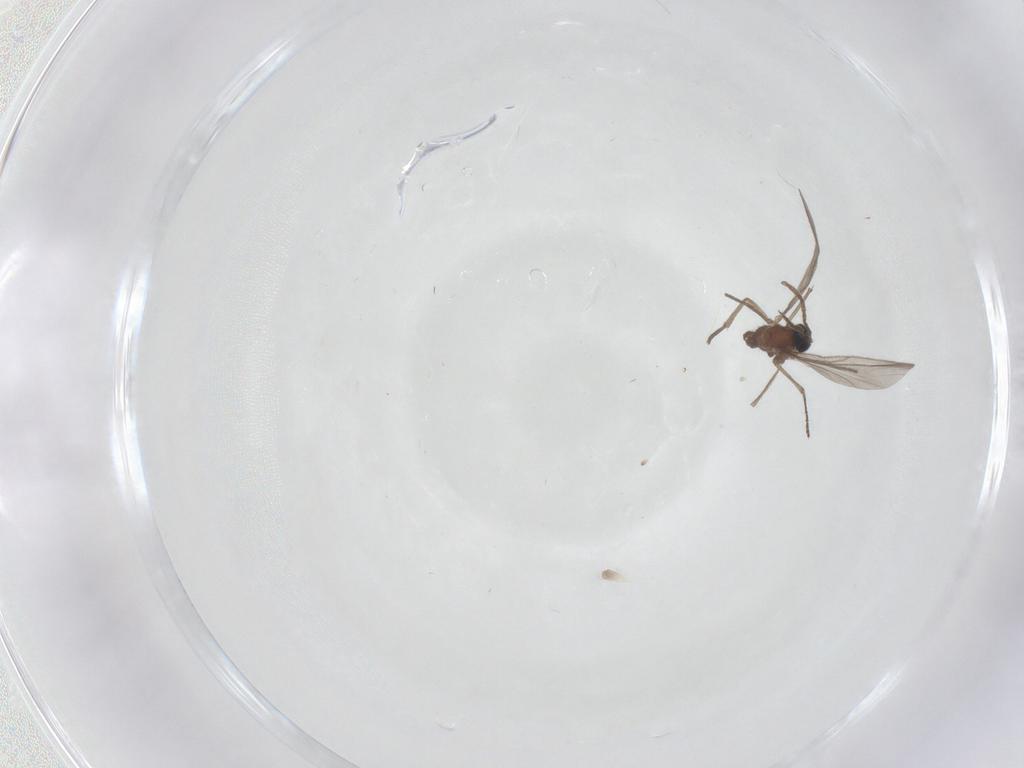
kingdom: Animalia
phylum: Arthropoda
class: Insecta
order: Diptera
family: Sciaridae
